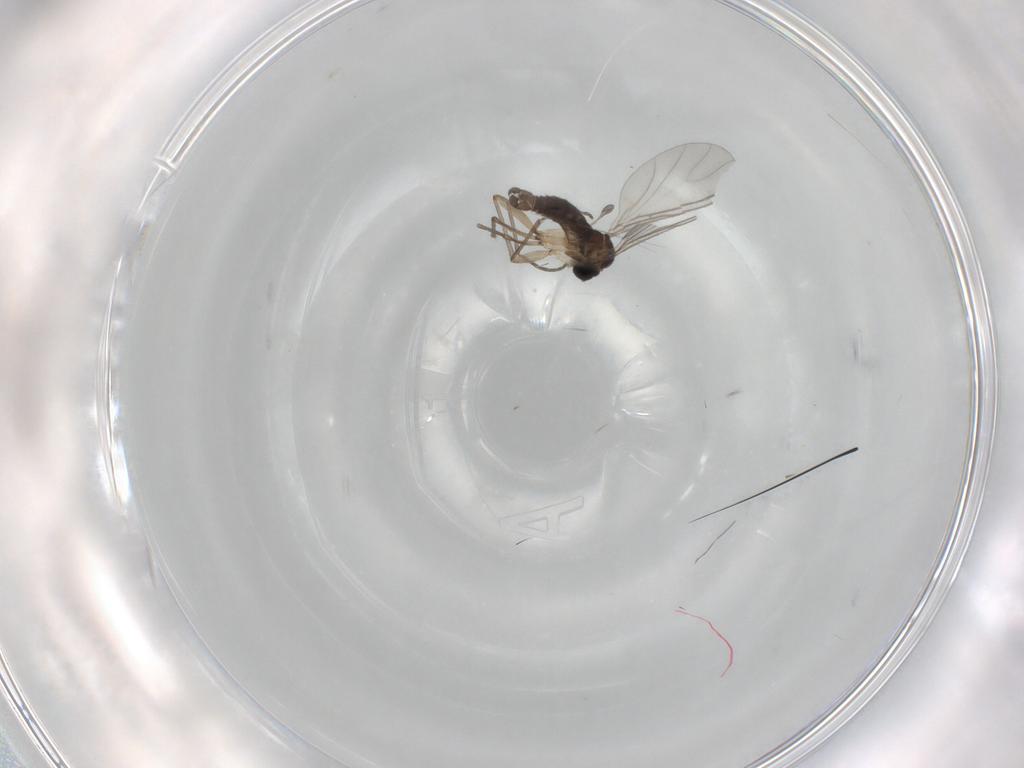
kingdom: Animalia
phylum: Arthropoda
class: Insecta
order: Diptera
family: Sciaridae
